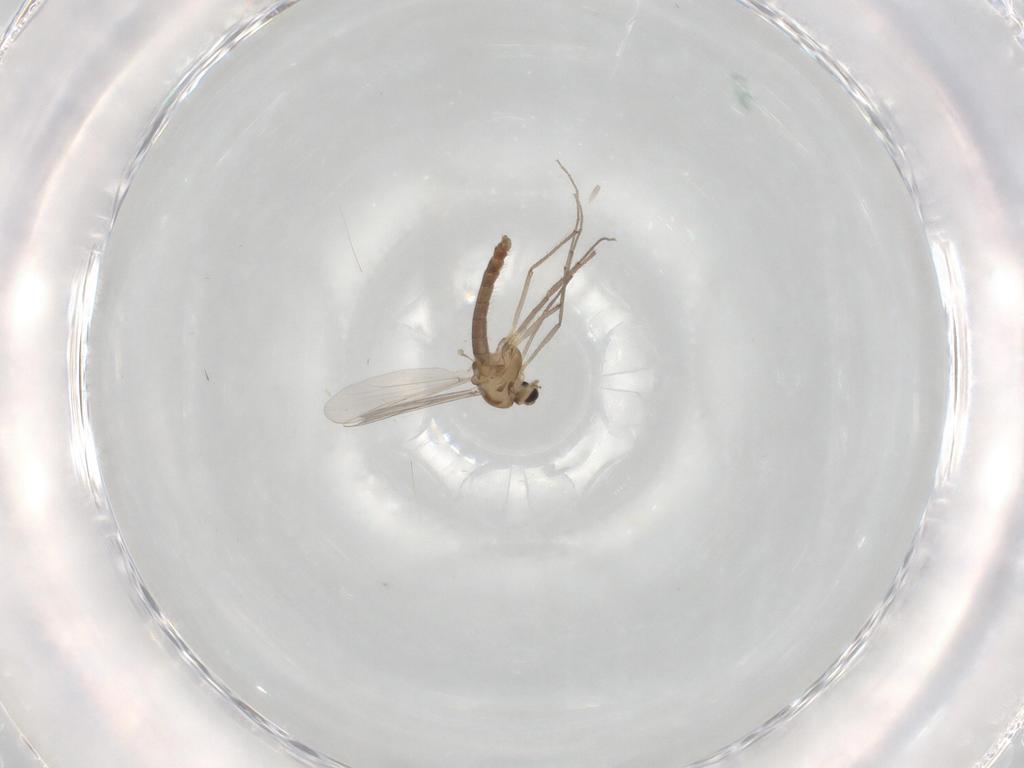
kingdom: Animalia
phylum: Arthropoda
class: Insecta
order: Diptera
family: Chironomidae
